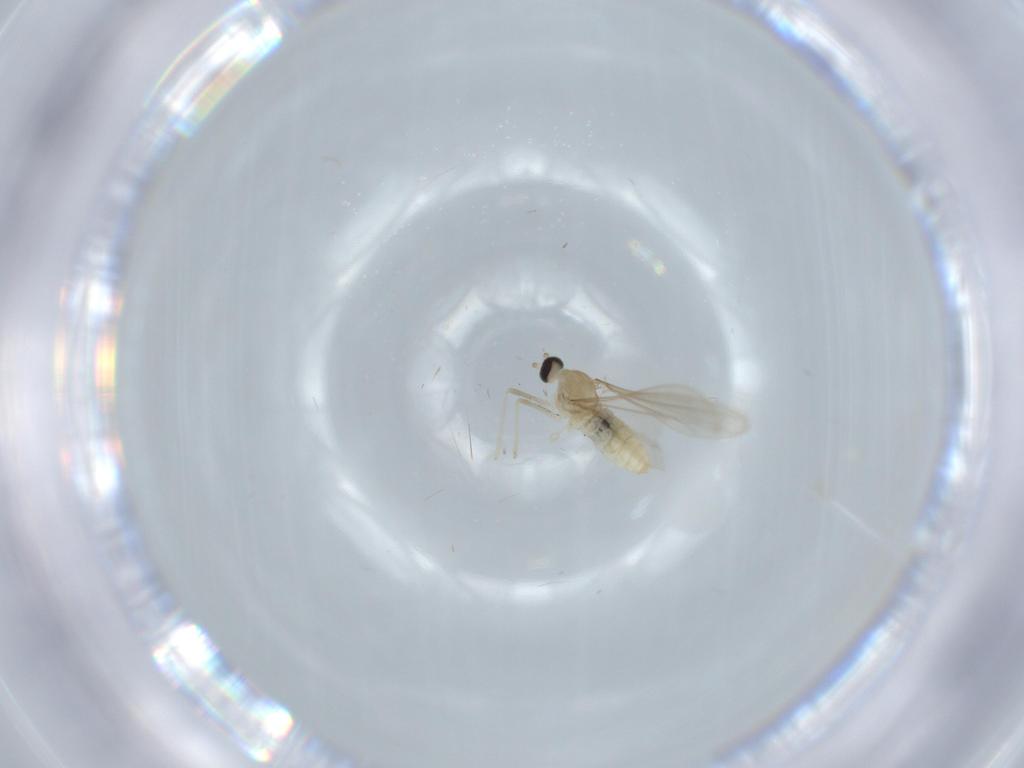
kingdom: Animalia
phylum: Arthropoda
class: Insecta
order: Diptera
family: Cecidomyiidae
